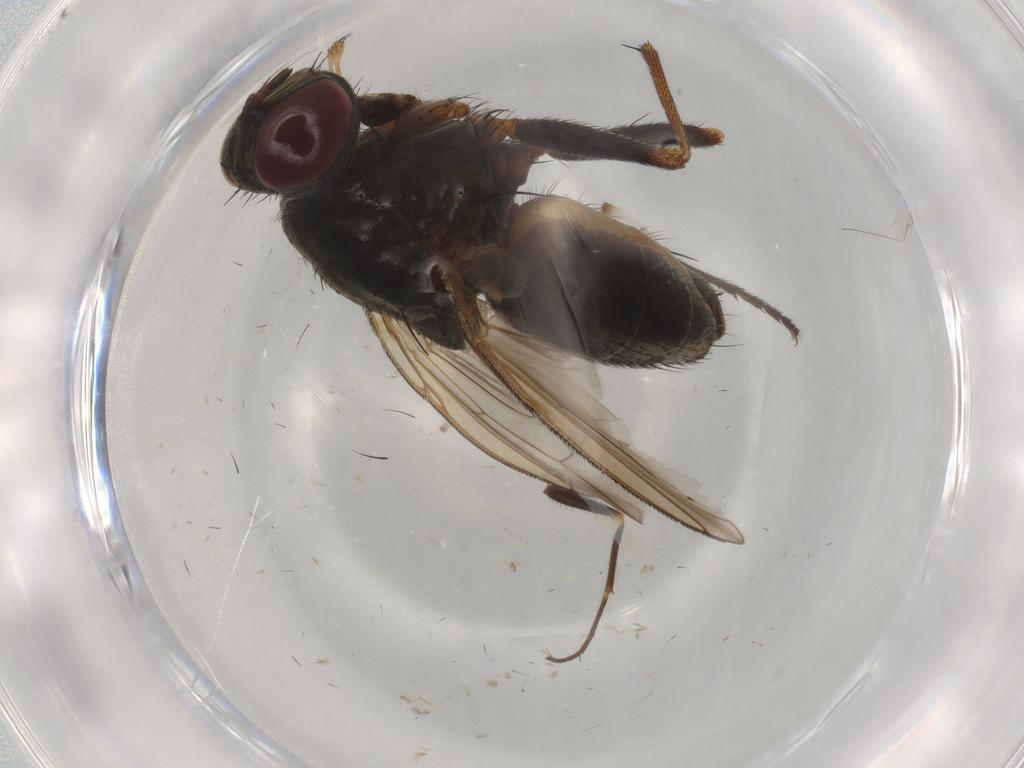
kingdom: Animalia
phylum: Arthropoda
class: Insecta
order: Diptera
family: Muscidae
